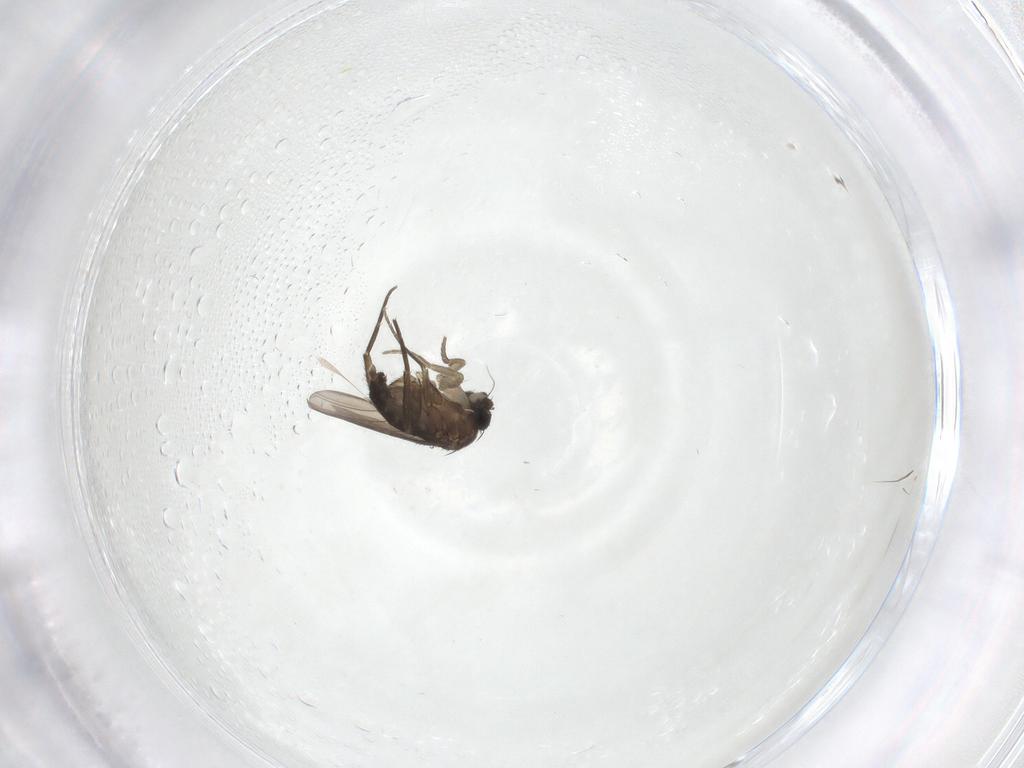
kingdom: Animalia
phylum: Arthropoda
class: Insecta
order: Diptera
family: Phoridae
